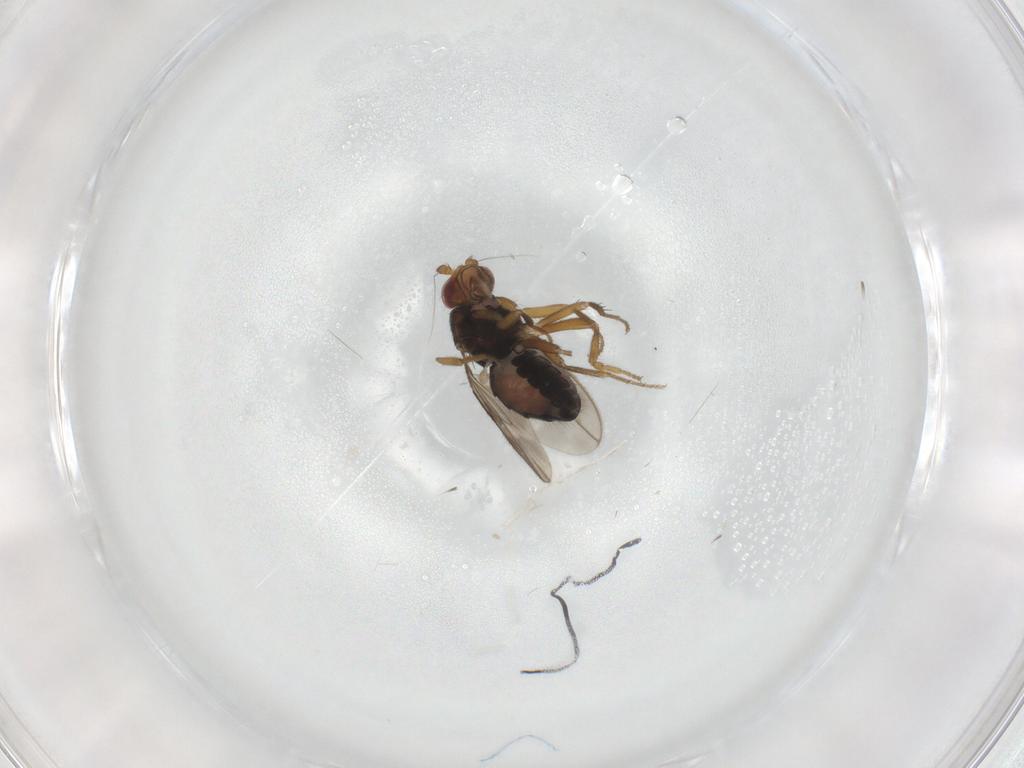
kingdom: Animalia
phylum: Arthropoda
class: Insecta
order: Diptera
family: Sphaeroceridae
